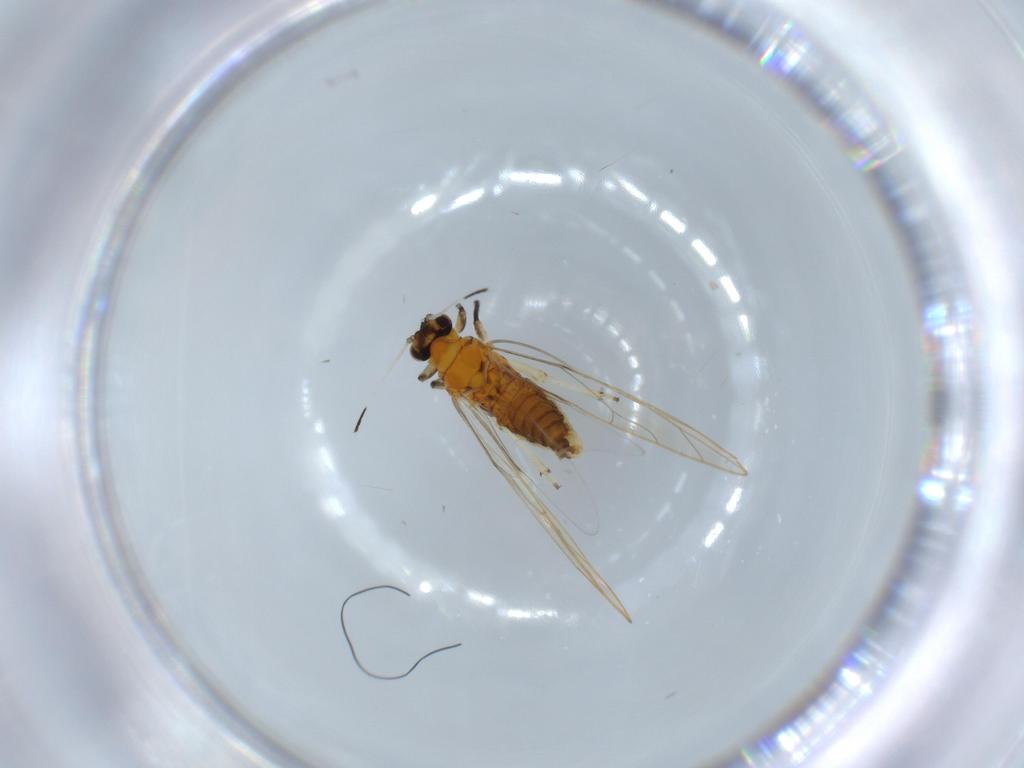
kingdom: Animalia
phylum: Arthropoda
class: Insecta
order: Hemiptera
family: Triozidae
